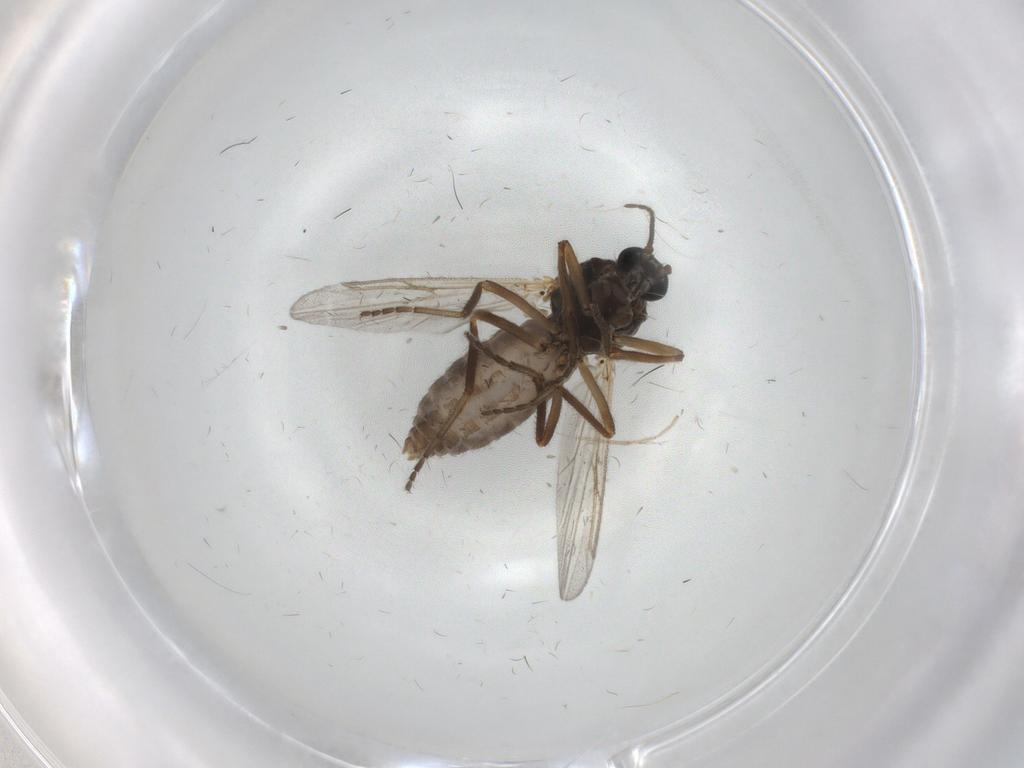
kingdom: Animalia
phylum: Arthropoda
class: Insecta
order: Diptera
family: Ceratopogonidae
